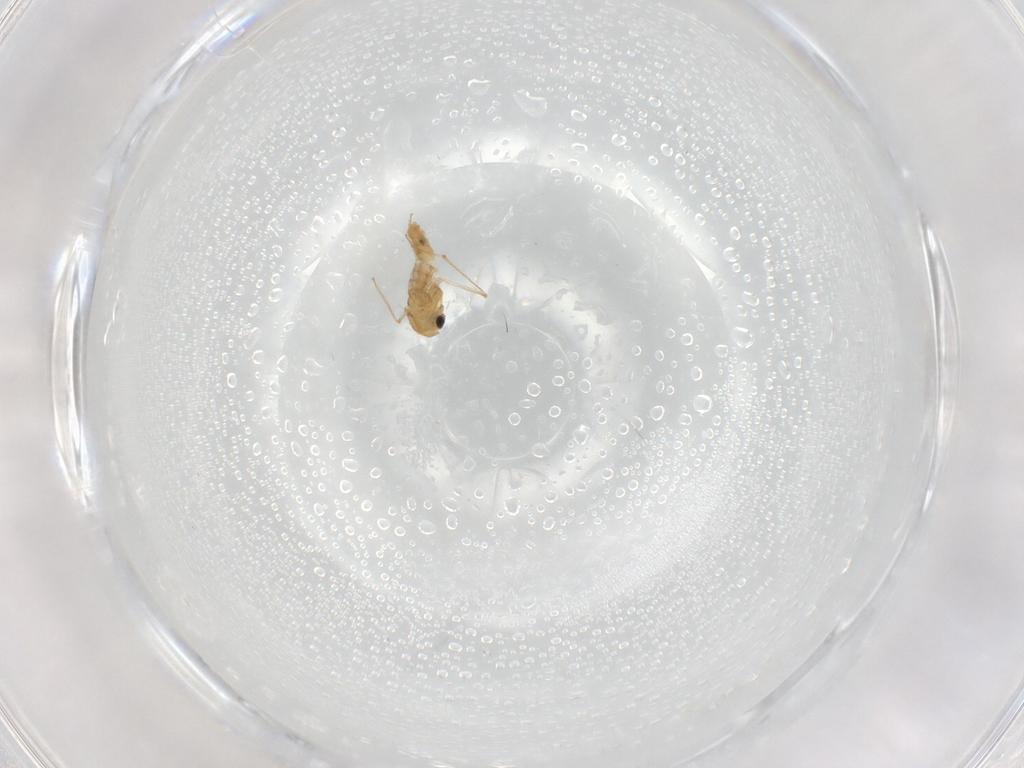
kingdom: Animalia
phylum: Arthropoda
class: Insecta
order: Diptera
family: Chironomidae
